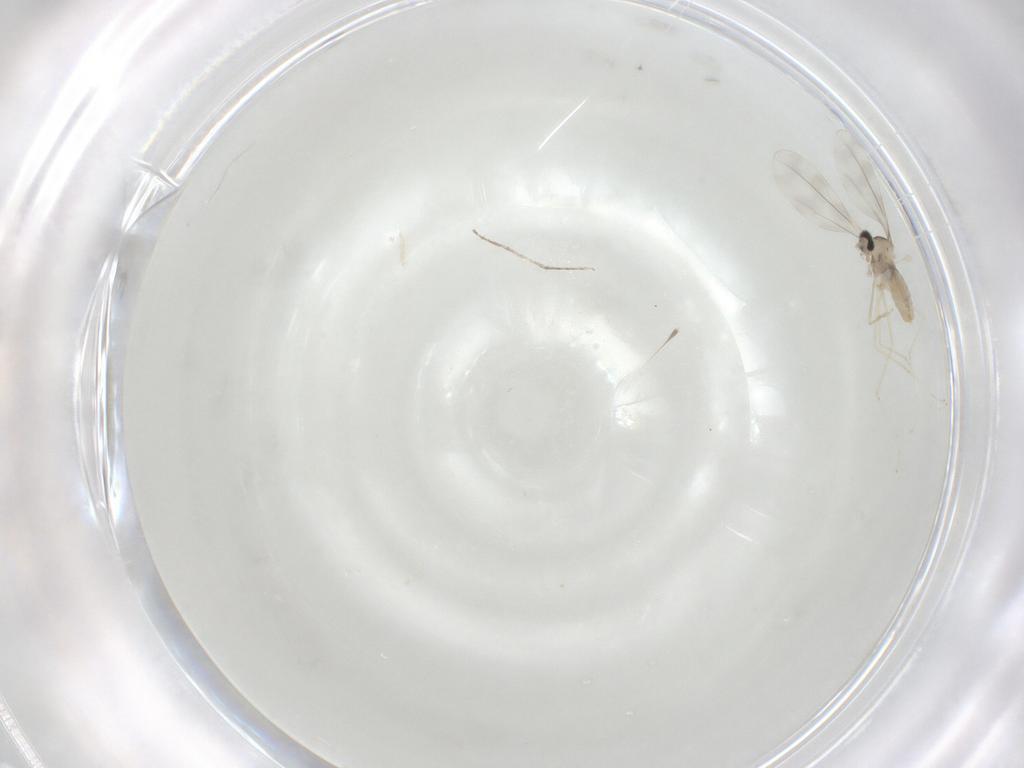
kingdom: Animalia
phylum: Arthropoda
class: Insecta
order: Diptera
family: Cecidomyiidae
